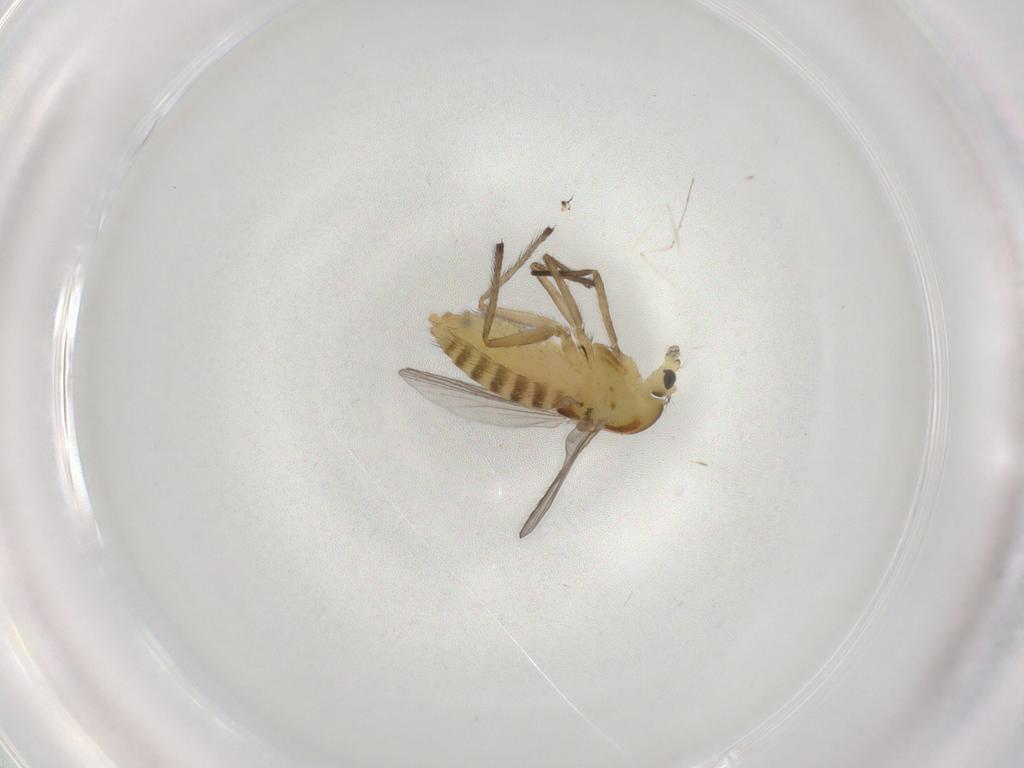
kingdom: Animalia
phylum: Arthropoda
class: Insecta
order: Diptera
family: Chironomidae
